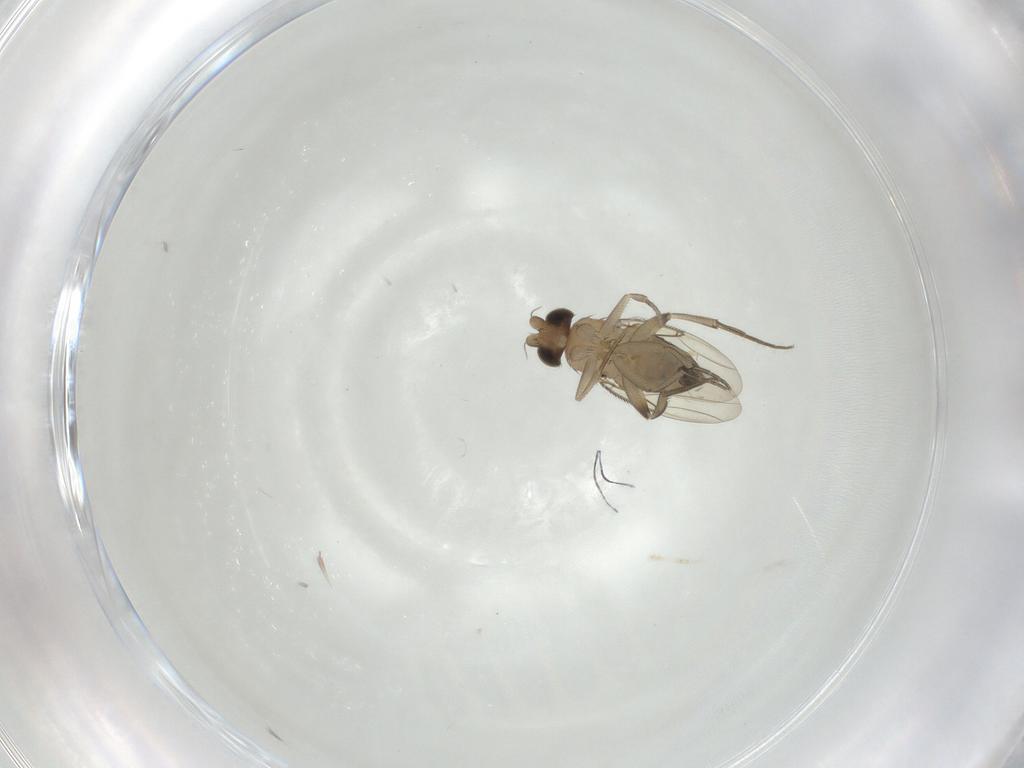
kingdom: Animalia
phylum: Arthropoda
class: Insecta
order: Diptera
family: Phoridae
